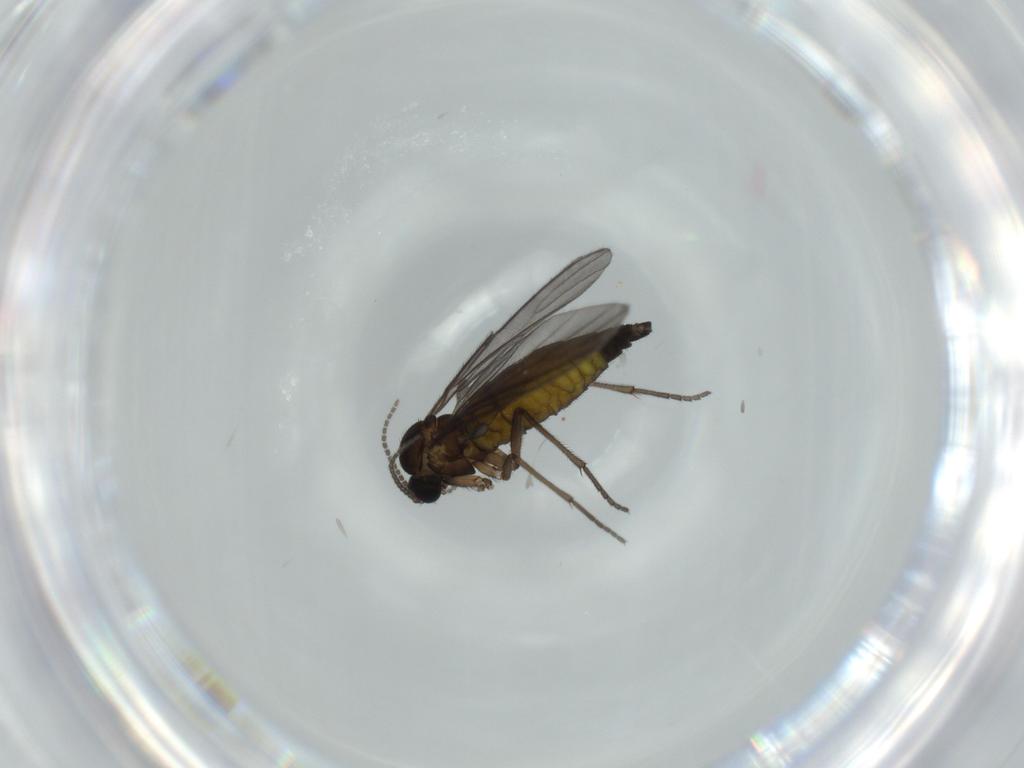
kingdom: Animalia
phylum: Arthropoda
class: Insecta
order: Diptera
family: Sciaridae
